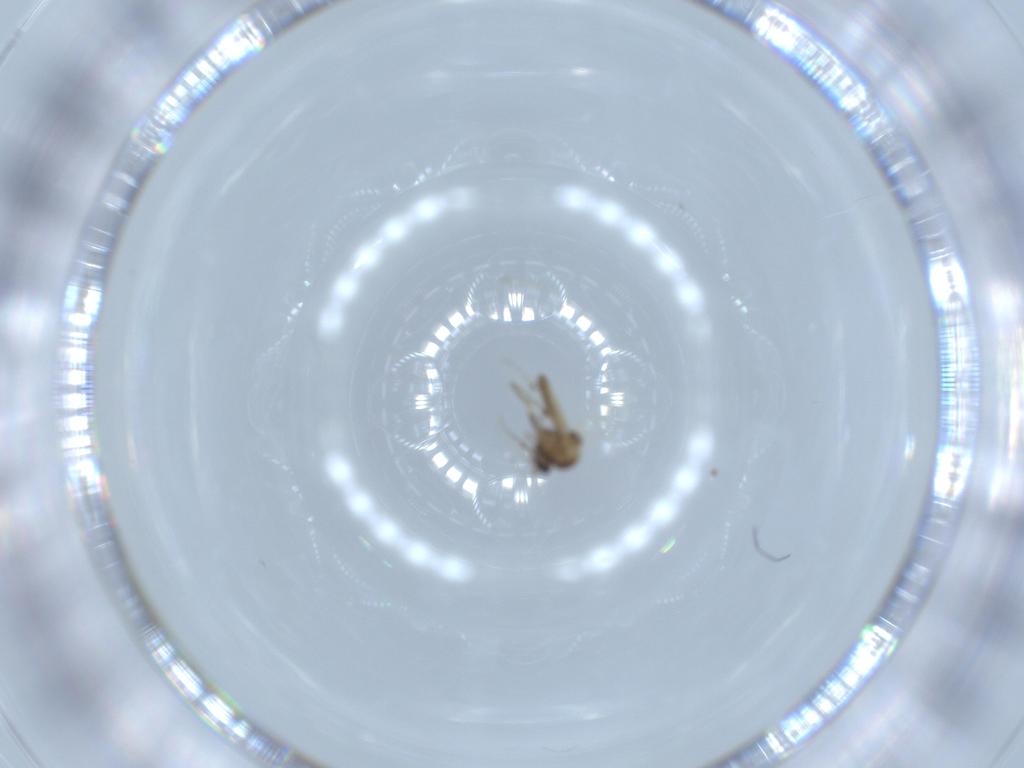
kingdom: Animalia
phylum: Arthropoda
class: Insecta
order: Diptera
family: Ceratopogonidae
